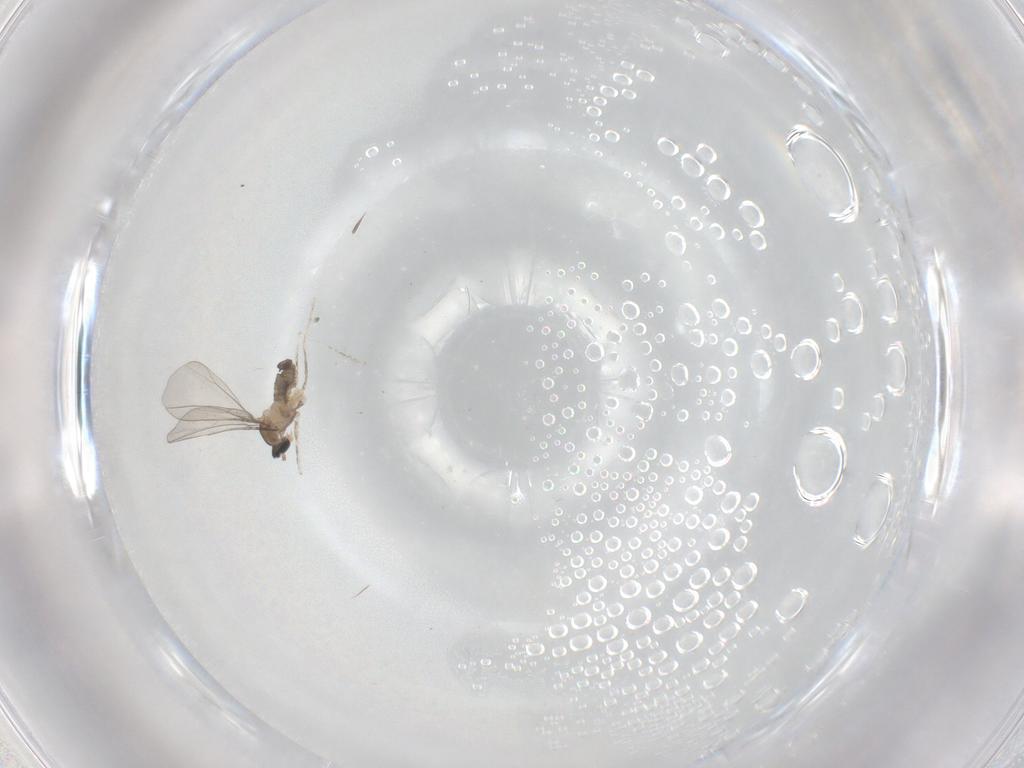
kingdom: Animalia
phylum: Arthropoda
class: Insecta
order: Diptera
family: Cecidomyiidae
